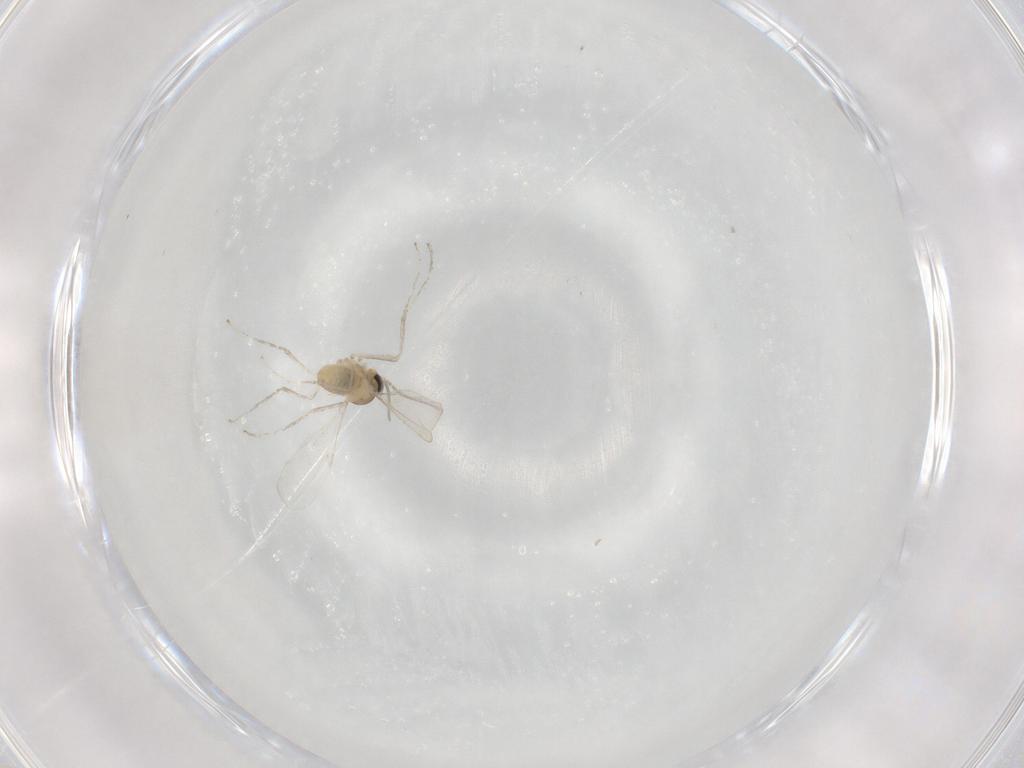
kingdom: Animalia
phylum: Arthropoda
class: Insecta
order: Diptera
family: Cecidomyiidae
